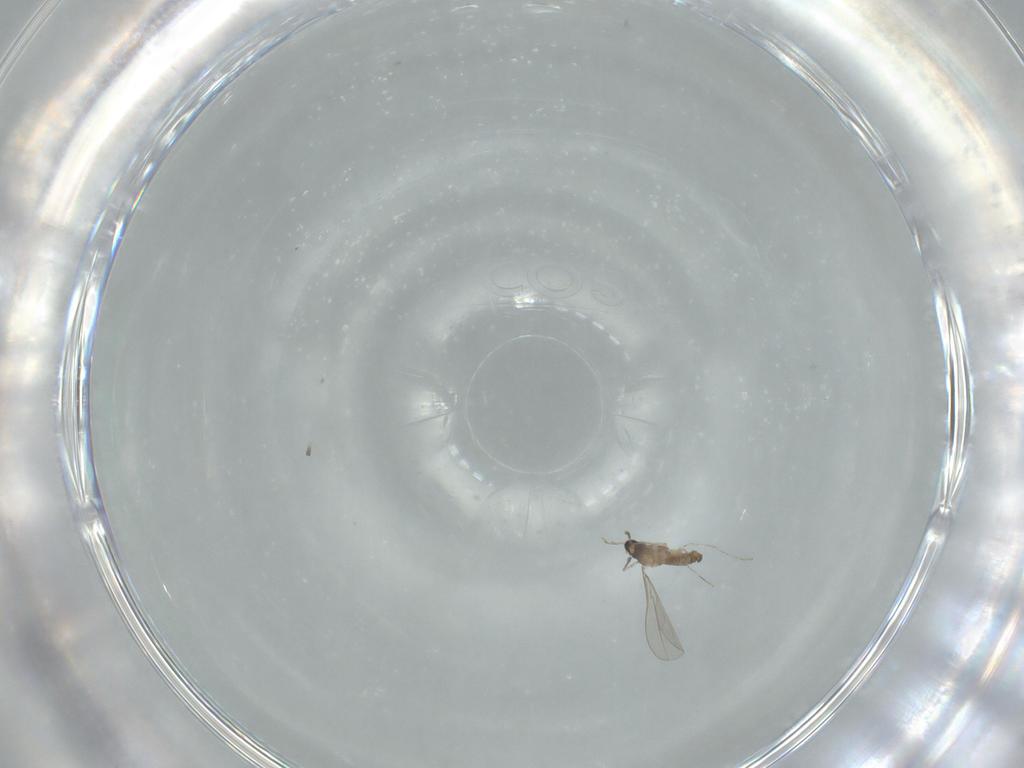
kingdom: Animalia
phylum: Arthropoda
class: Insecta
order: Diptera
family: Cecidomyiidae
